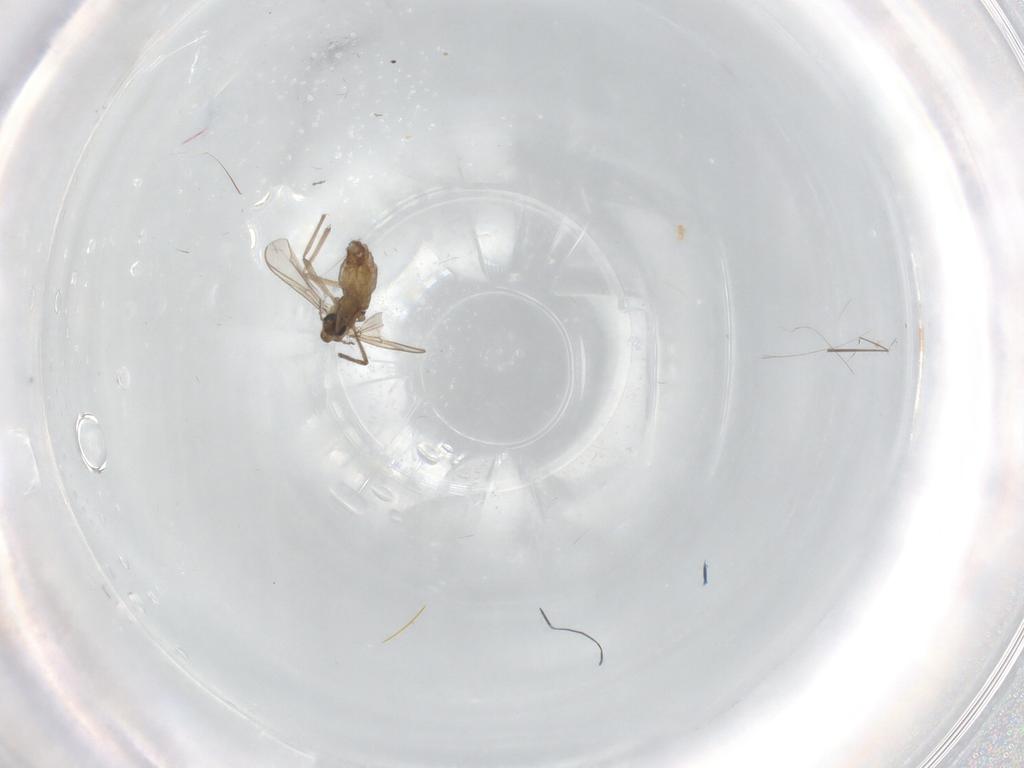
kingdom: Animalia
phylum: Arthropoda
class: Insecta
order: Diptera
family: Chironomidae
